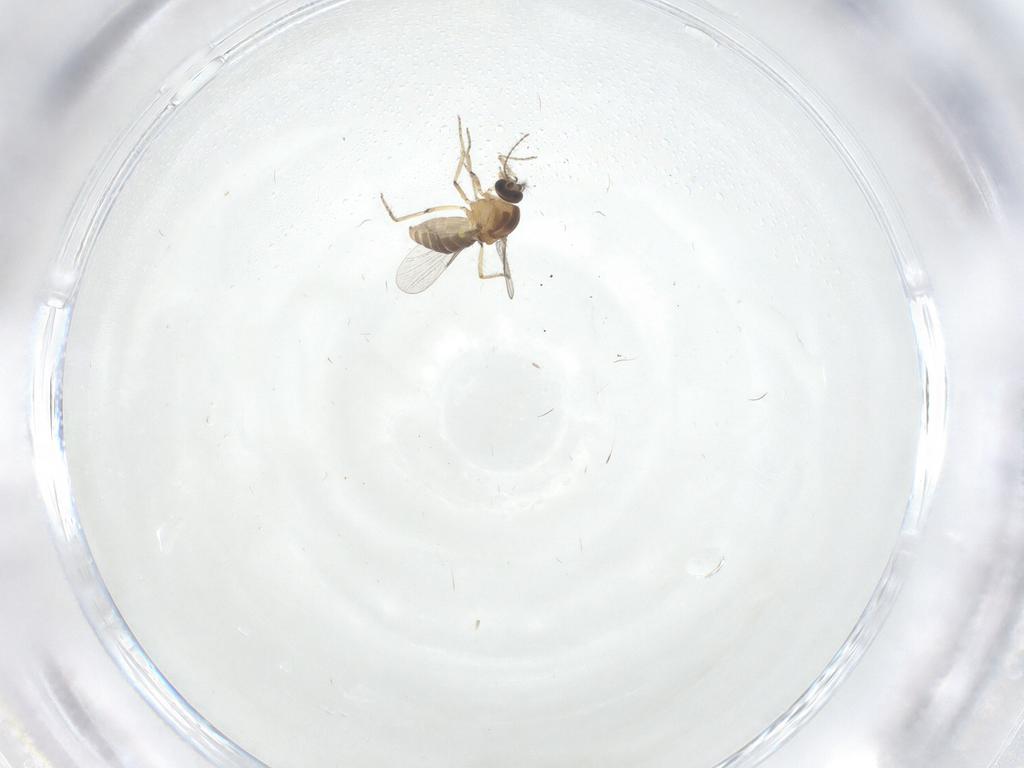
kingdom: Animalia
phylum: Arthropoda
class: Insecta
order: Diptera
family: Ceratopogonidae
